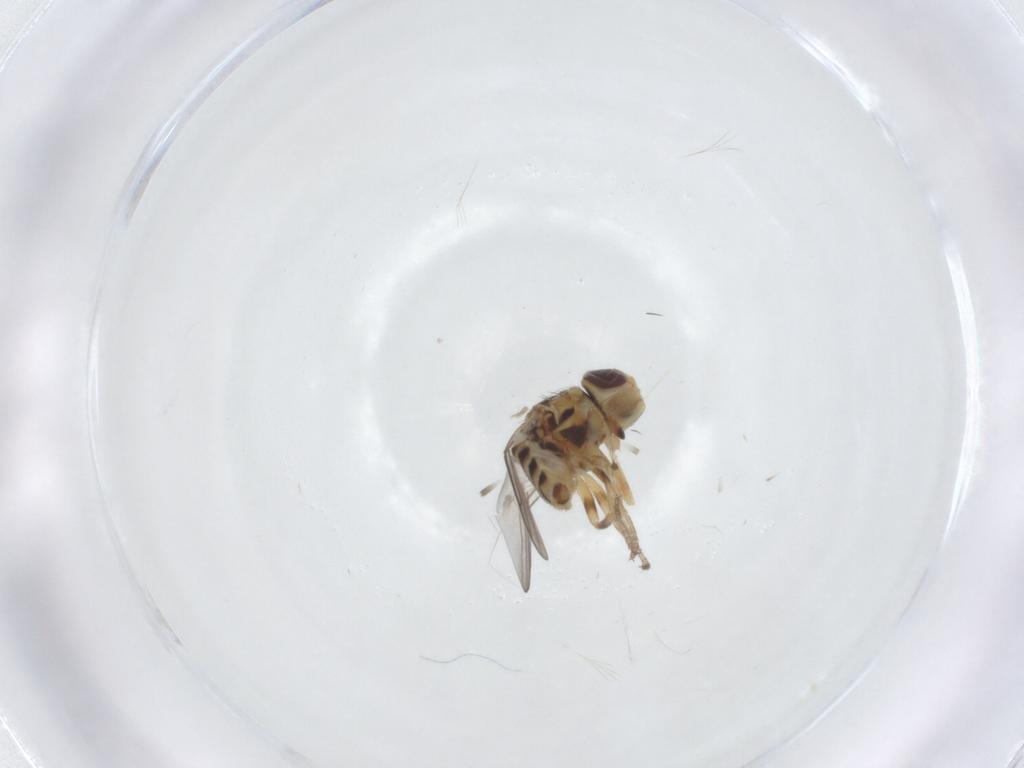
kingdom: Animalia
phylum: Arthropoda
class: Insecta
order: Diptera
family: Chloropidae
